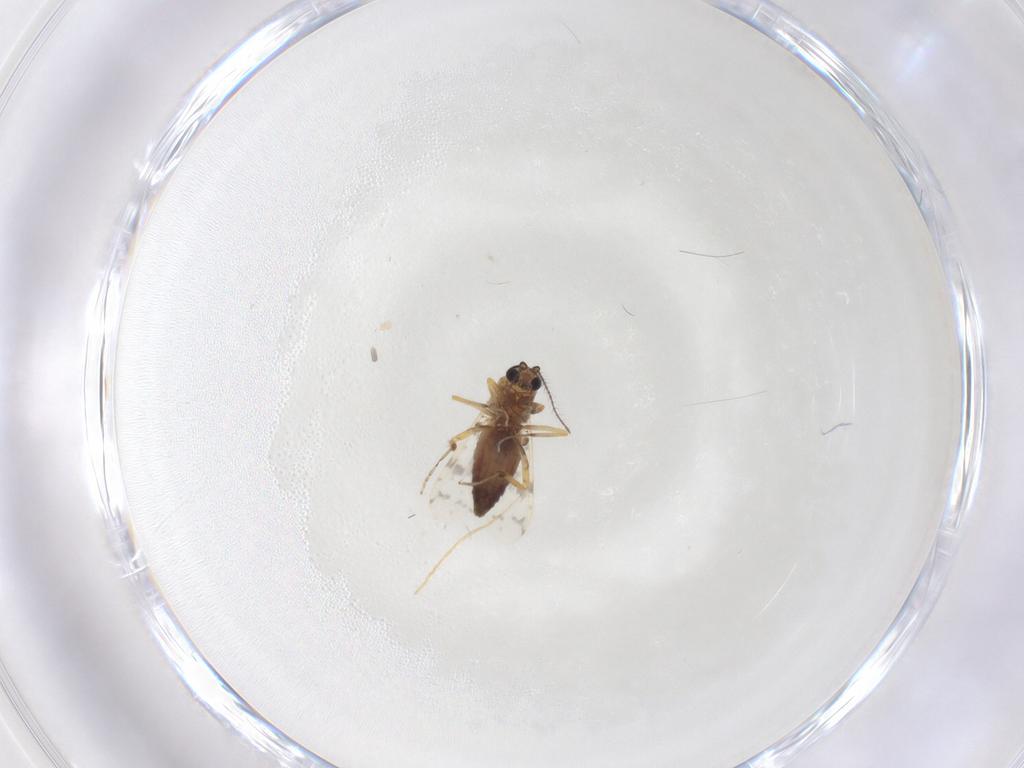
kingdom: Animalia
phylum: Arthropoda
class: Insecta
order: Diptera
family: Ceratopogonidae
